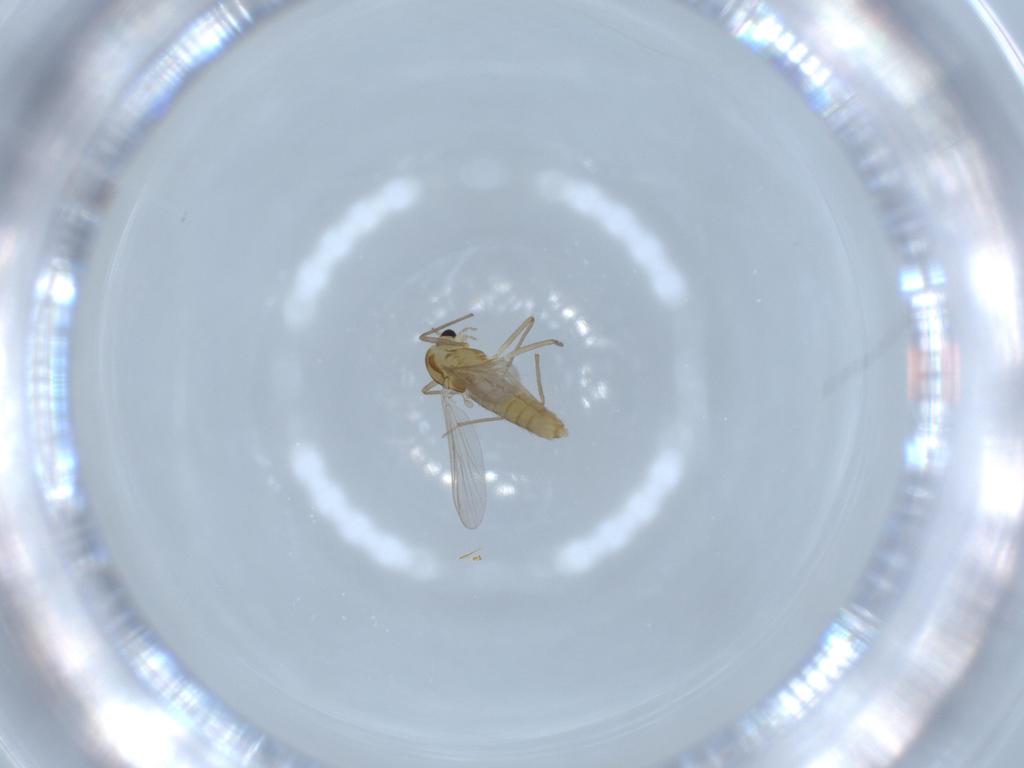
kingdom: Animalia
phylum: Arthropoda
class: Insecta
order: Diptera
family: Chironomidae
